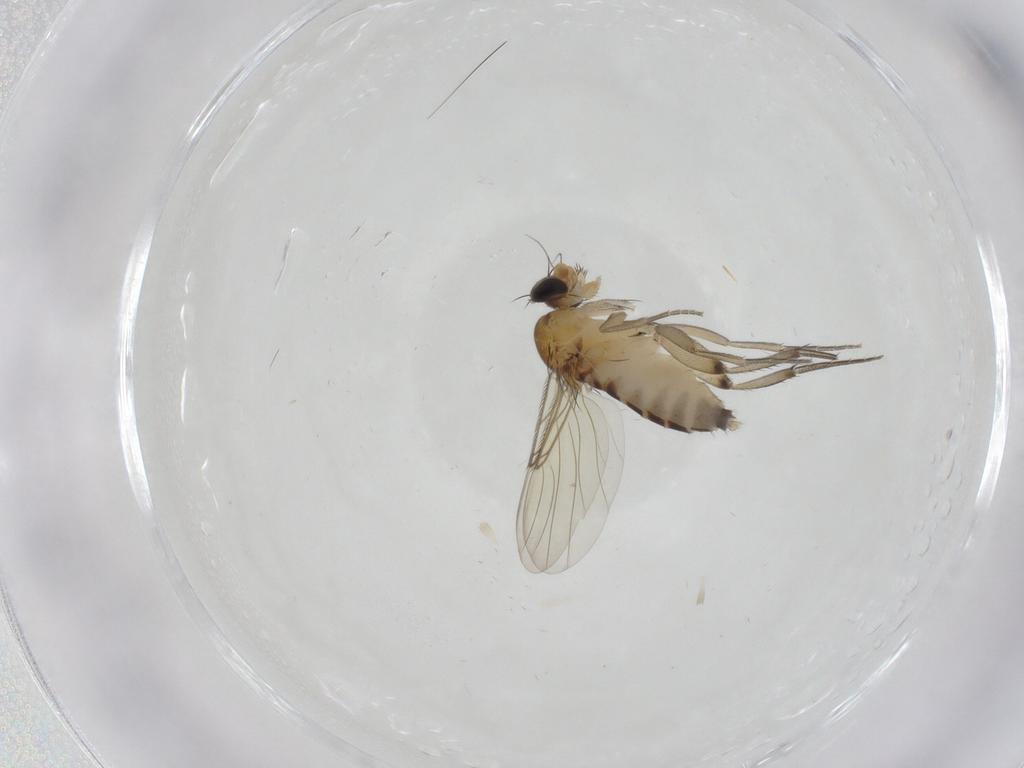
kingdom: Animalia
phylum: Arthropoda
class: Insecta
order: Diptera
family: Phoridae
